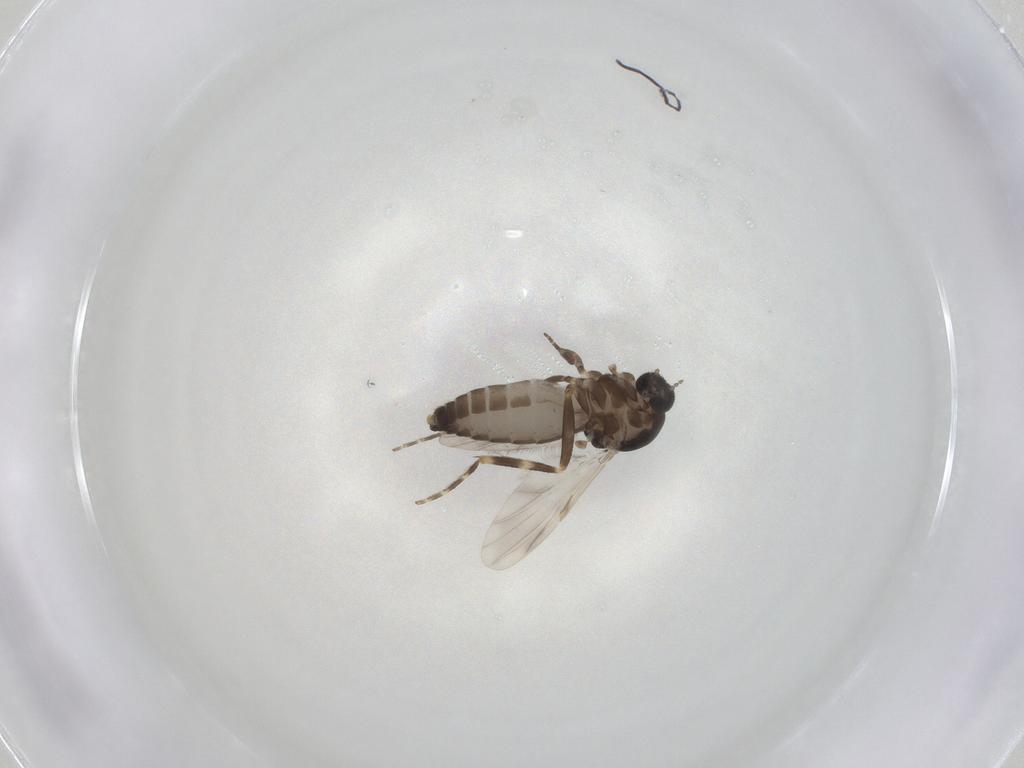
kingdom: Animalia
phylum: Arthropoda
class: Insecta
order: Diptera
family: Ceratopogonidae
